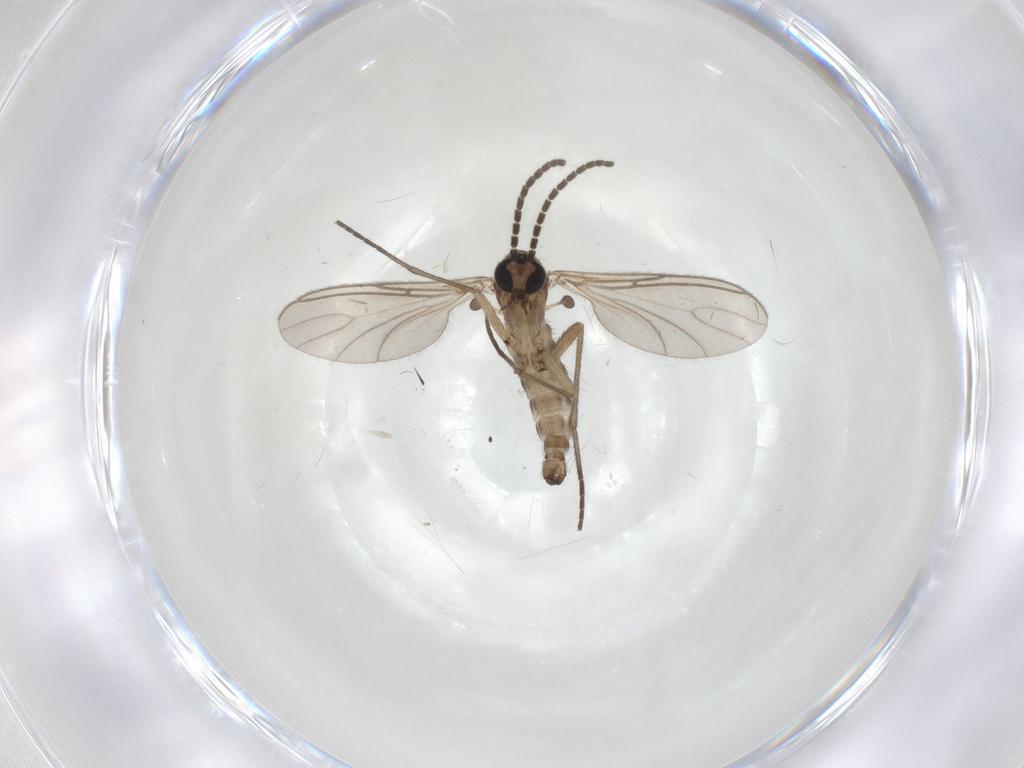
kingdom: Animalia
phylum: Arthropoda
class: Insecta
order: Diptera
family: Sciaridae
